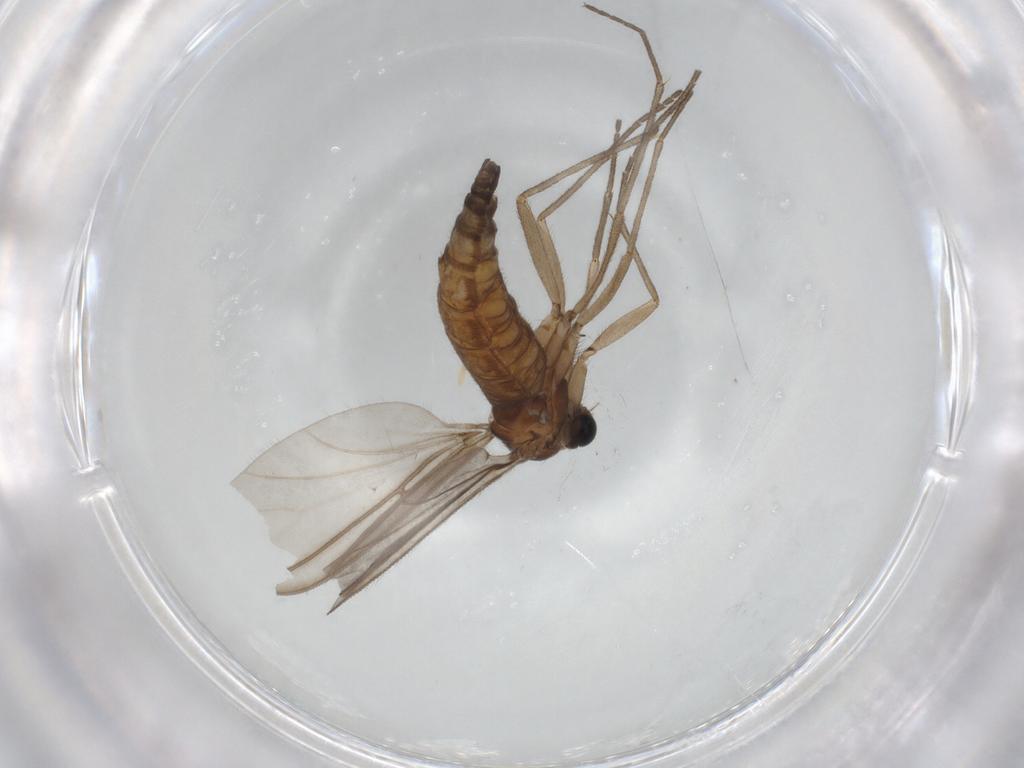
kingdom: Animalia
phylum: Arthropoda
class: Insecta
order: Diptera
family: Sciaridae
